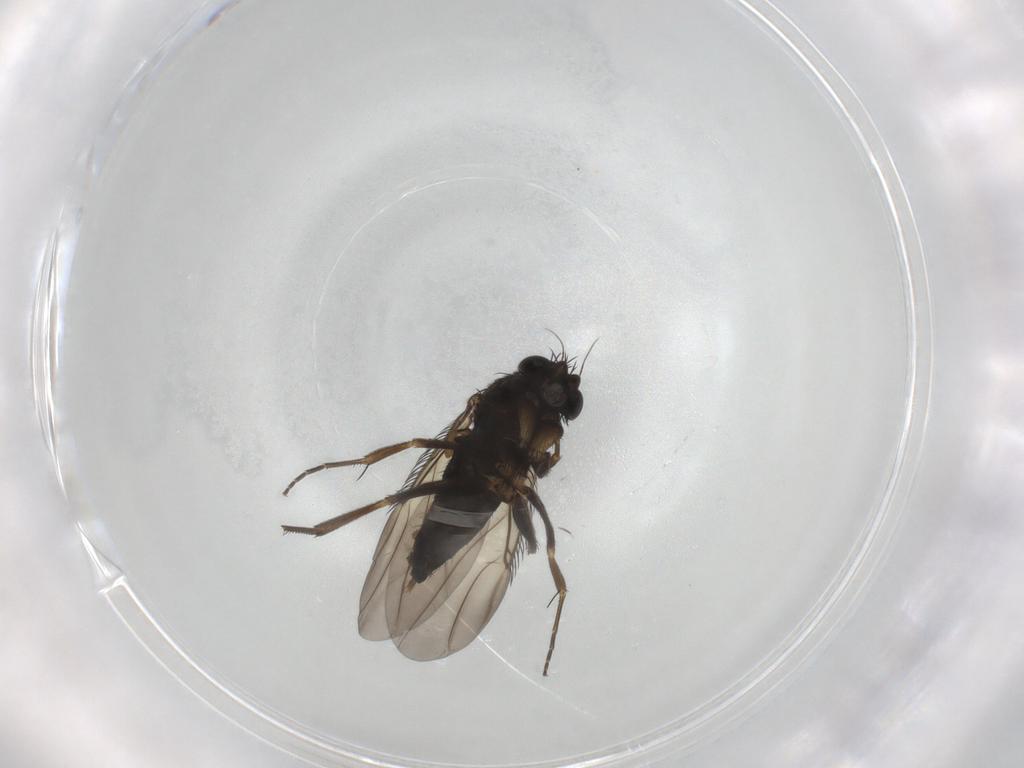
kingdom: Animalia
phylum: Arthropoda
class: Insecta
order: Diptera
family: Phoridae
